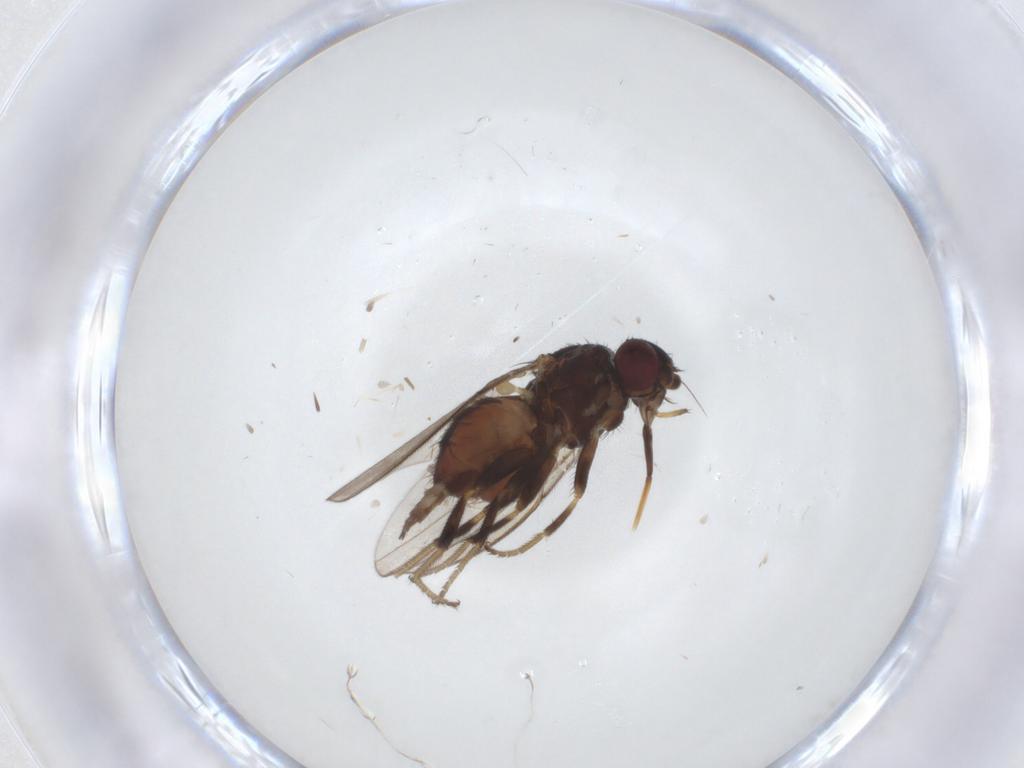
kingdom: Animalia
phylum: Arthropoda
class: Insecta
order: Diptera
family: Milichiidae
